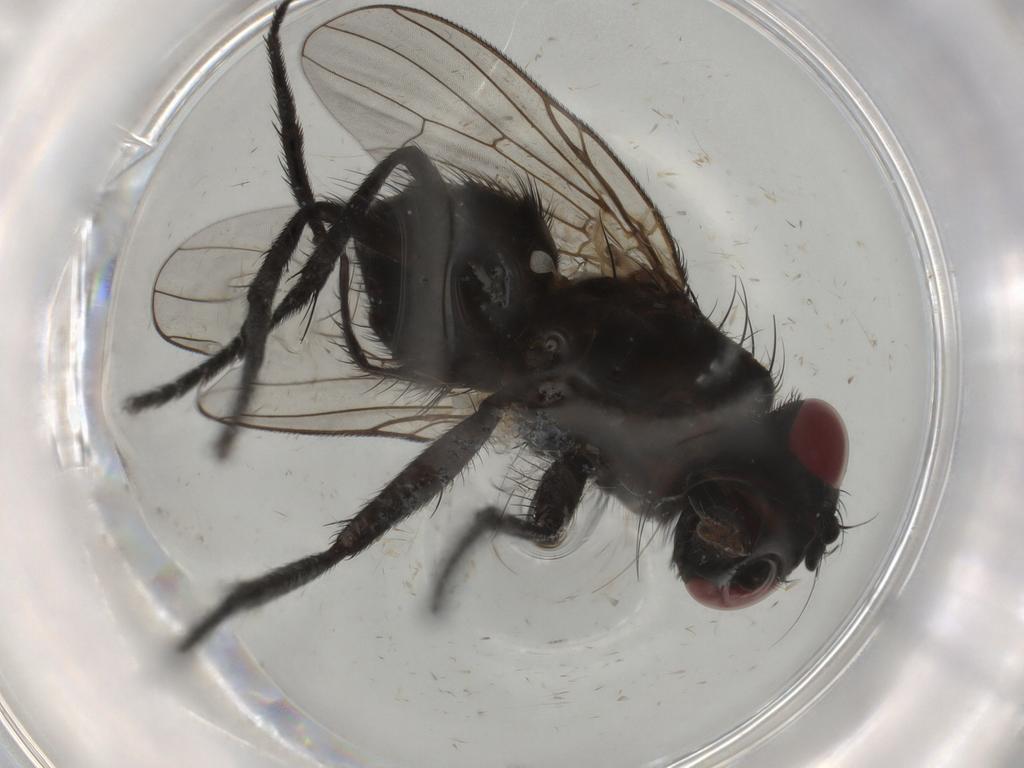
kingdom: Animalia
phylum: Arthropoda
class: Insecta
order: Diptera
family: Muscidae
